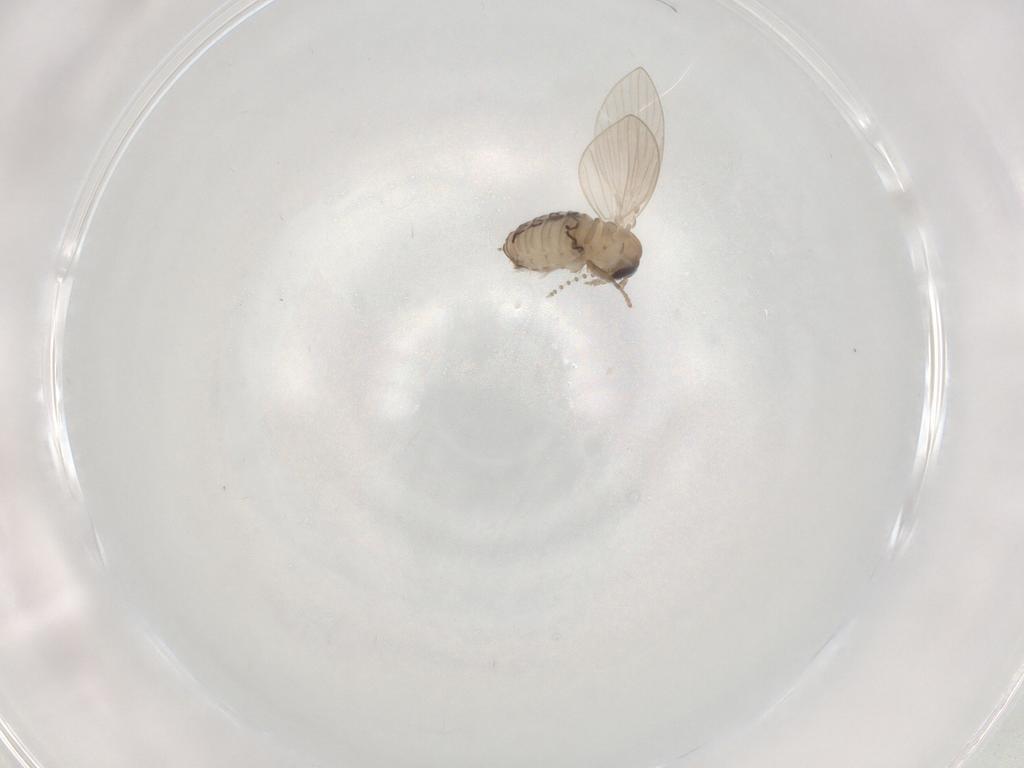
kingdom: Animalia
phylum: Arthropoda
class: Insecta
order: Diptera
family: Psychodidae
